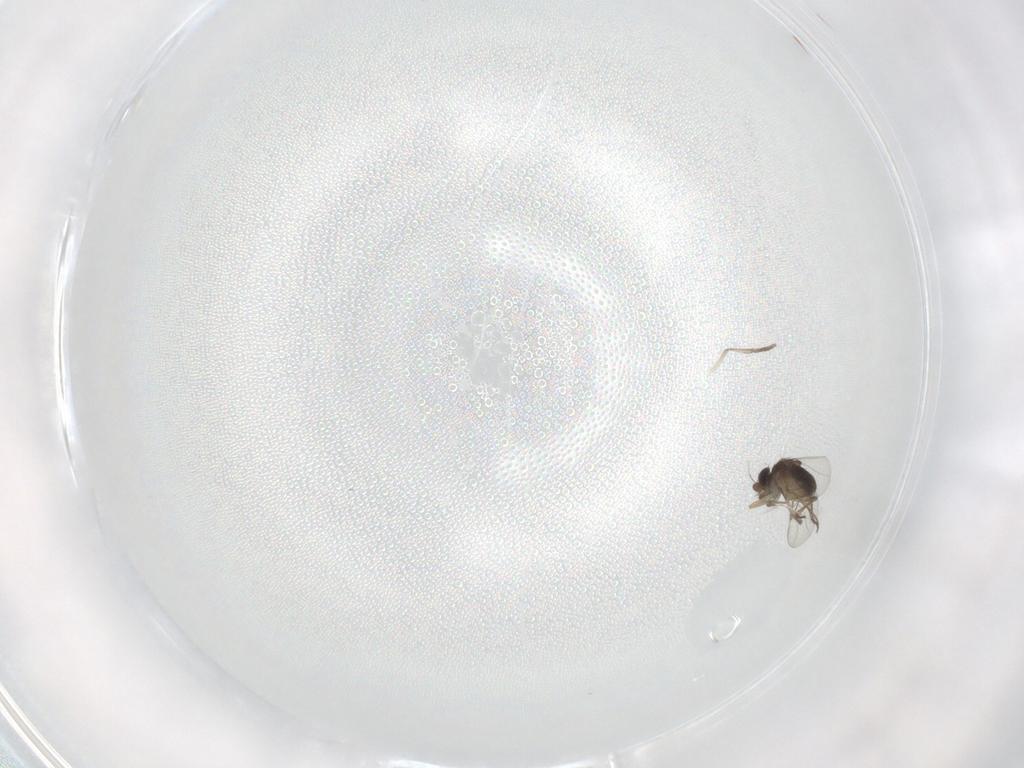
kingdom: Animalia
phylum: Arthropoda
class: Insecta
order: Diptera
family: Psychodidae
